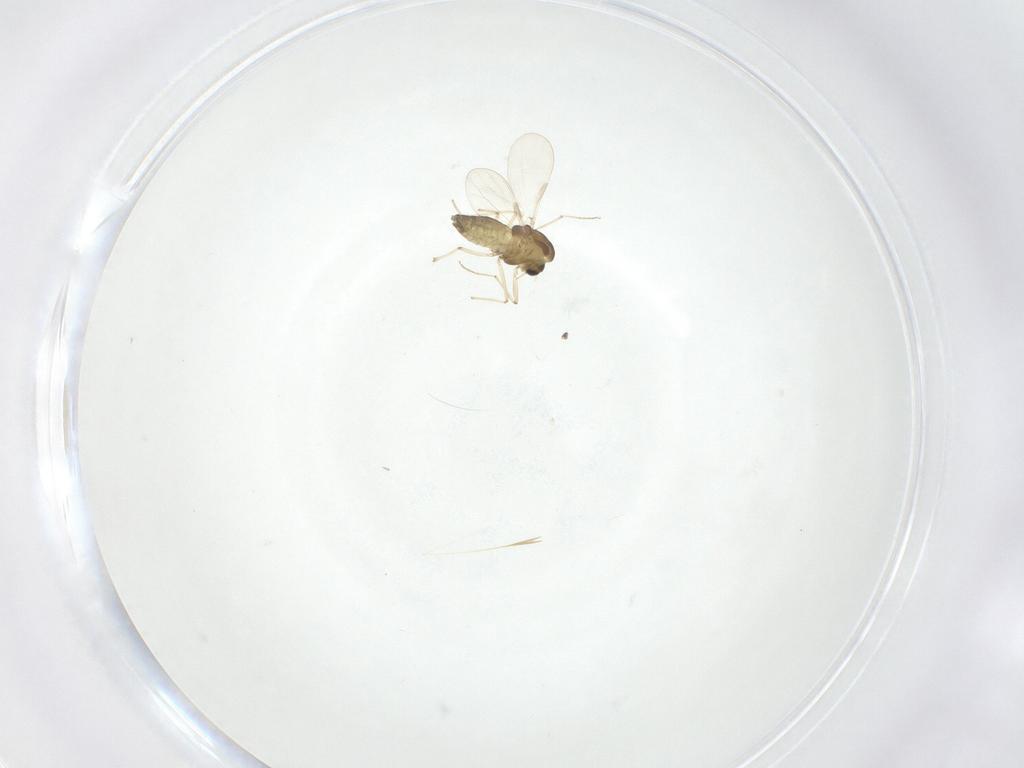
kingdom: Animalia
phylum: Arthropoda
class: Insecta
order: Diptera
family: Chironomidae
